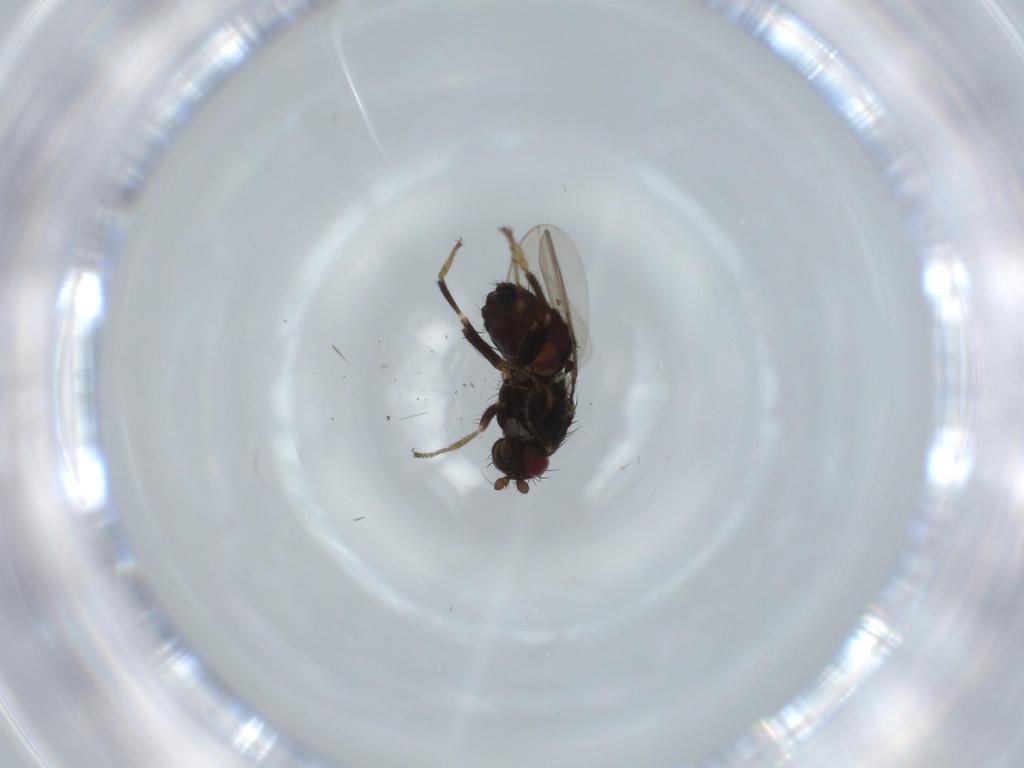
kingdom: Animalia
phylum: Arthropoda
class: Insecta
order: Diptera
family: Sphaeroceridae
